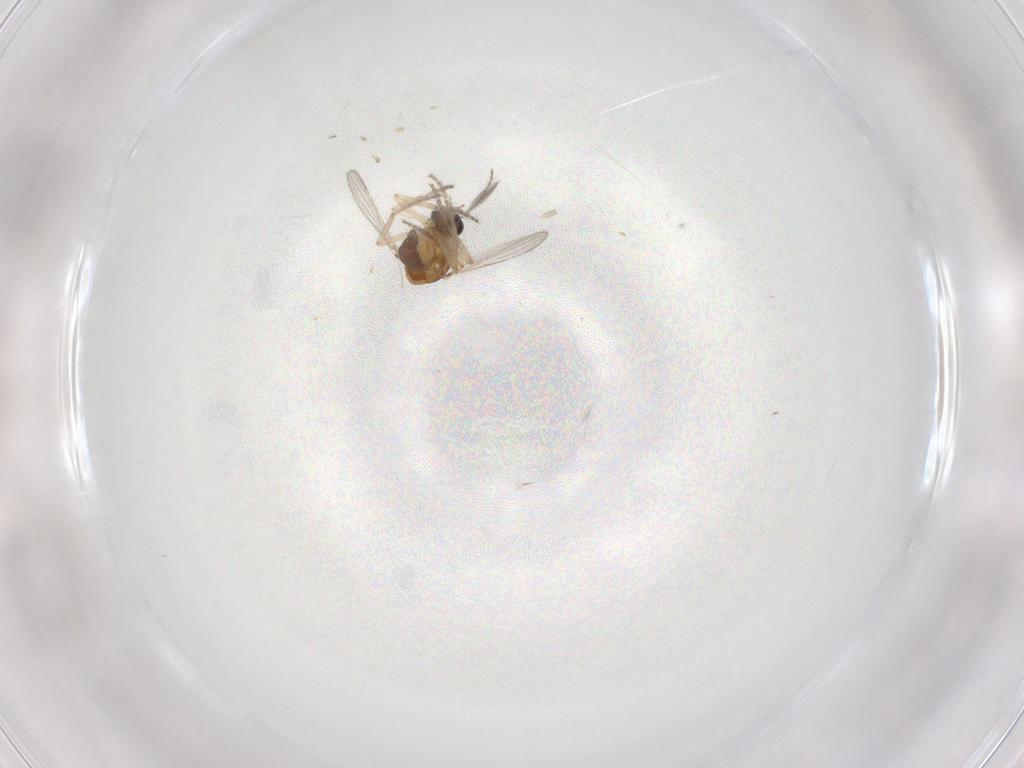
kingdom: Animalia
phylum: Arthropoda
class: Insecta
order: Diptera
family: Ceratopogonidae
